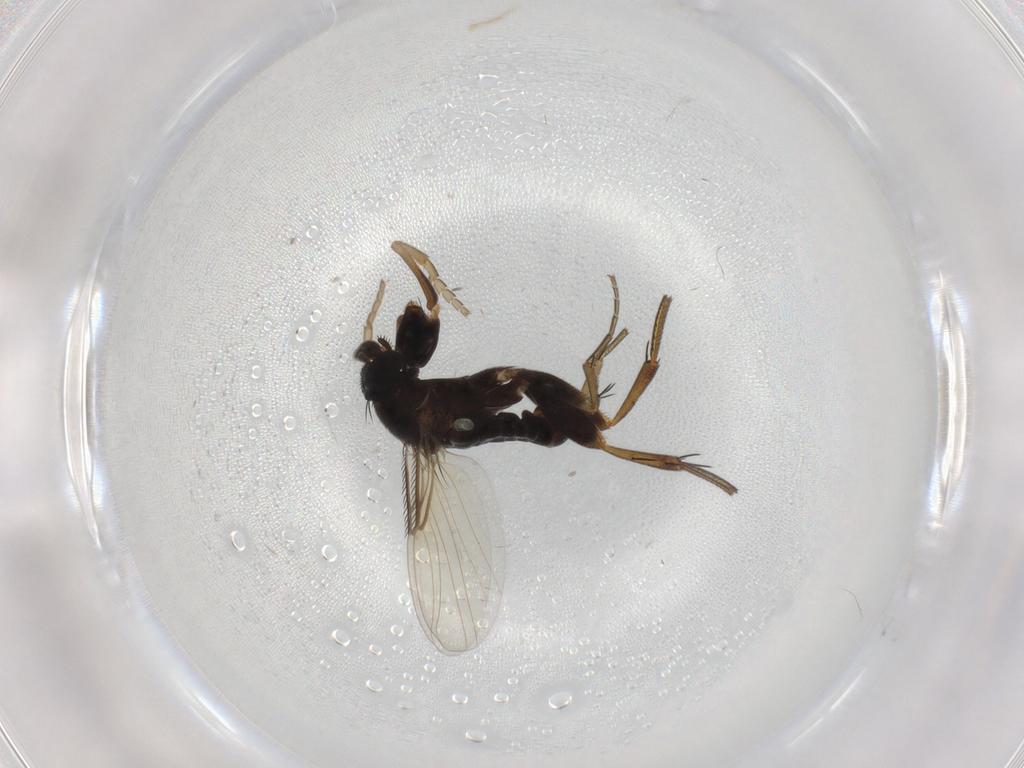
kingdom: Animalia
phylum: Arthropoda
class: Insecta
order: Diptera
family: Phoridae
